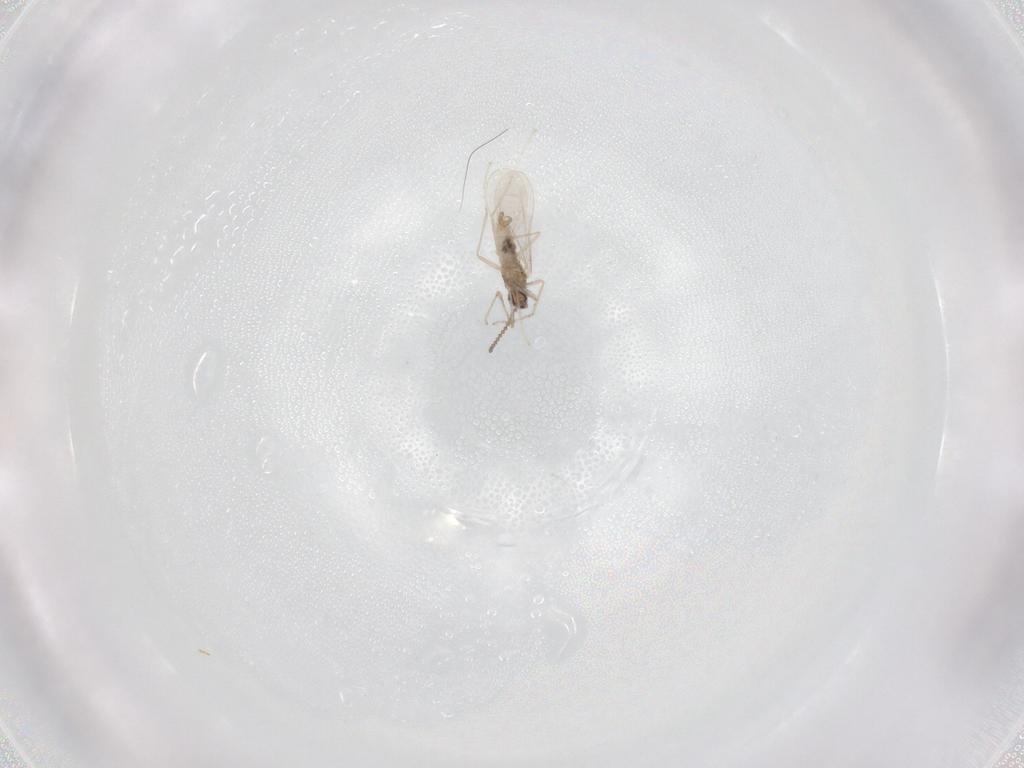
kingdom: Animalia
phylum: Arthropoda
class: Insecta
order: Diptera
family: Cecidomyiidae
